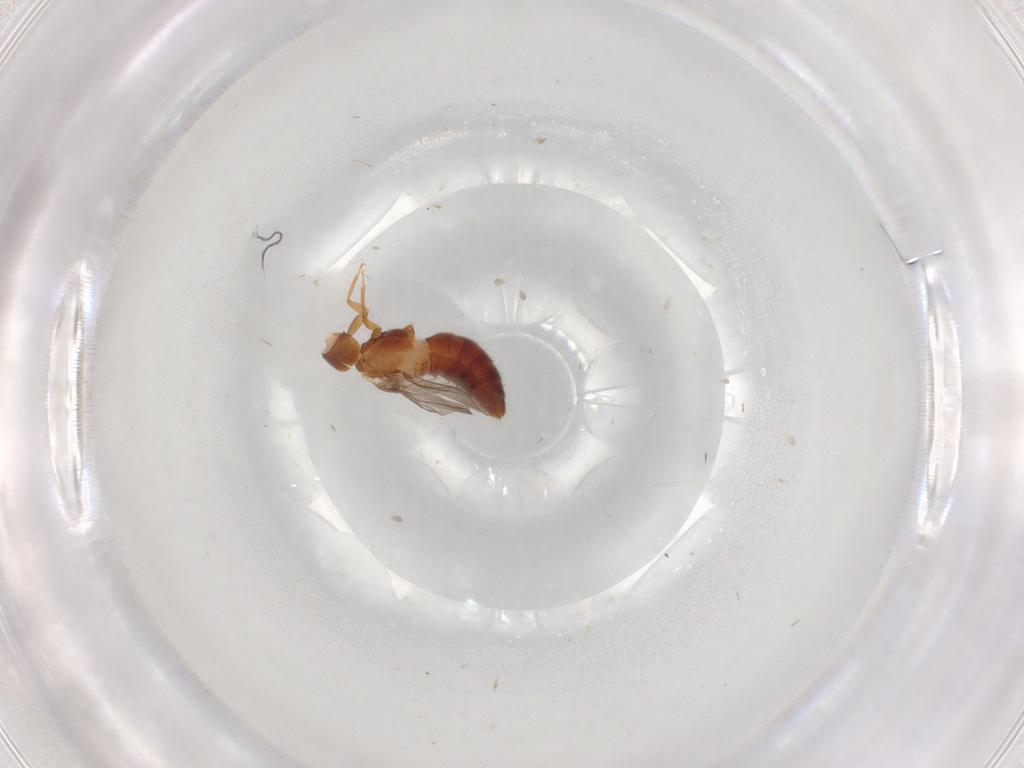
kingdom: Animalia
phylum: Arthropoda
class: Insecta
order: Coleoptera
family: Staphylinidae
